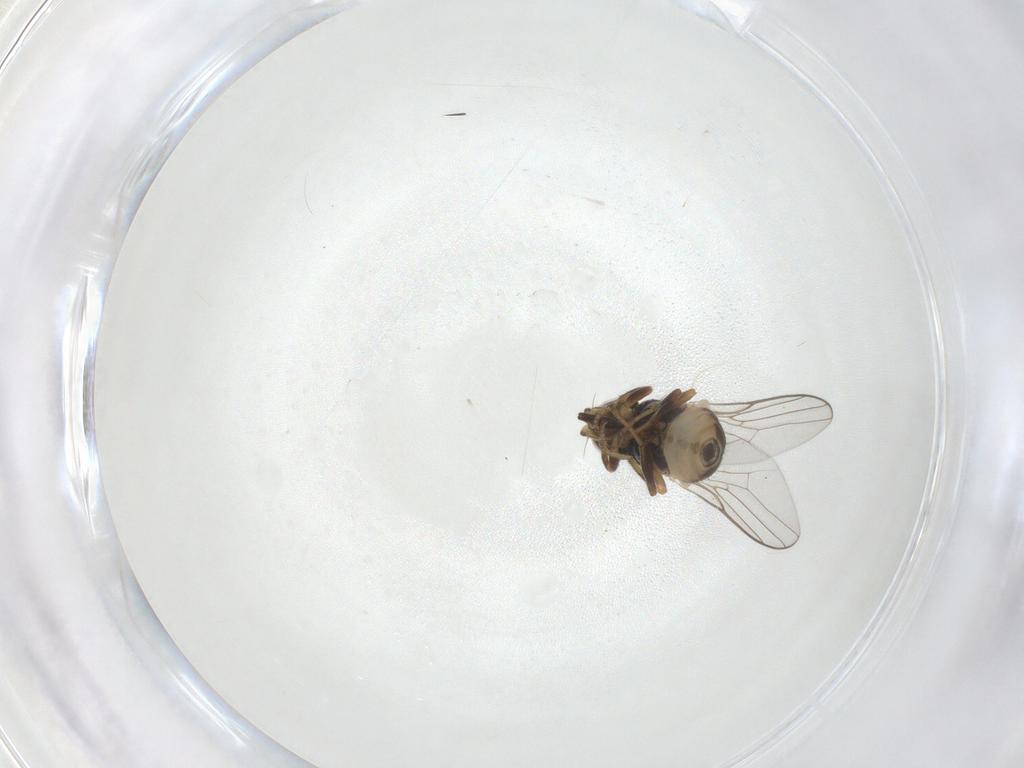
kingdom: Animalia
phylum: Arthropoda
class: Insecta
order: Diptera
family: Chloropidae
